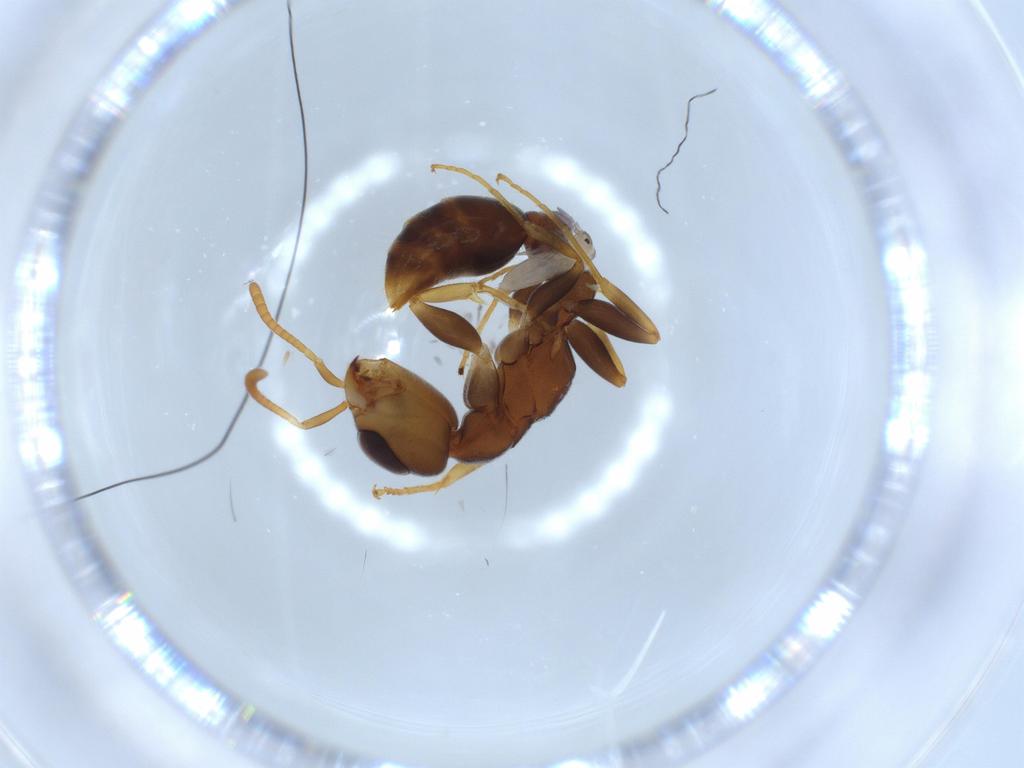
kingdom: Animalia
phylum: Arthropoda
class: Insecta
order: Hymenoptera
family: Formicidae
